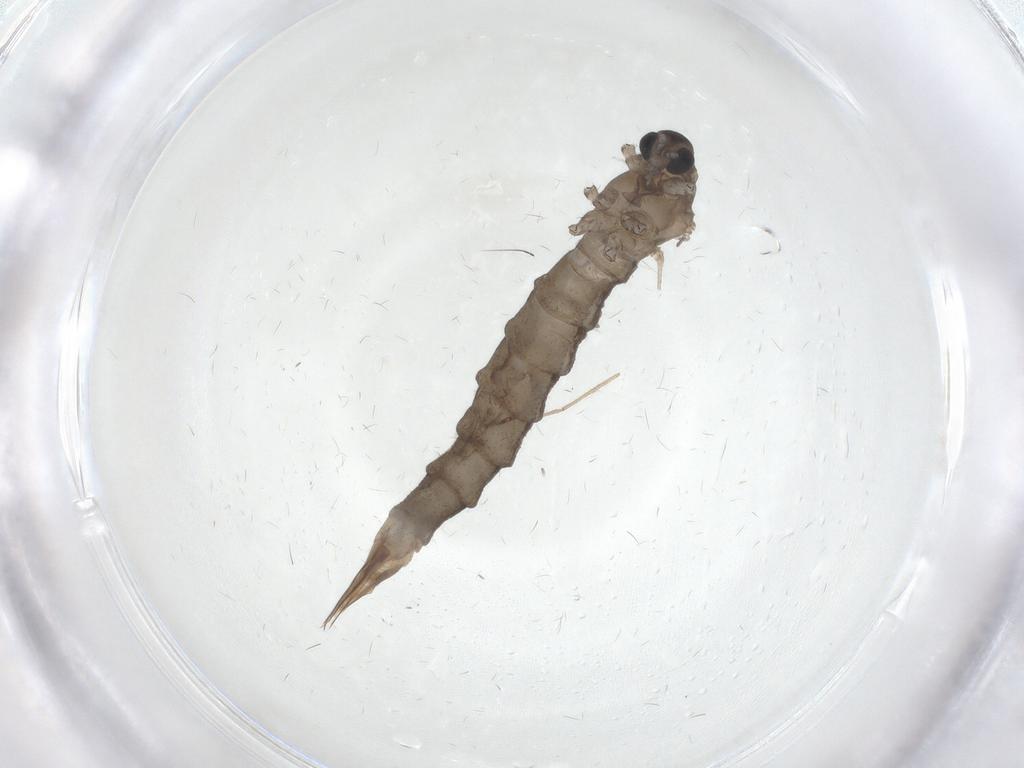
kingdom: Animalia
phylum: Arthropoda
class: Insecta
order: Diptera
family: Limoniidae
